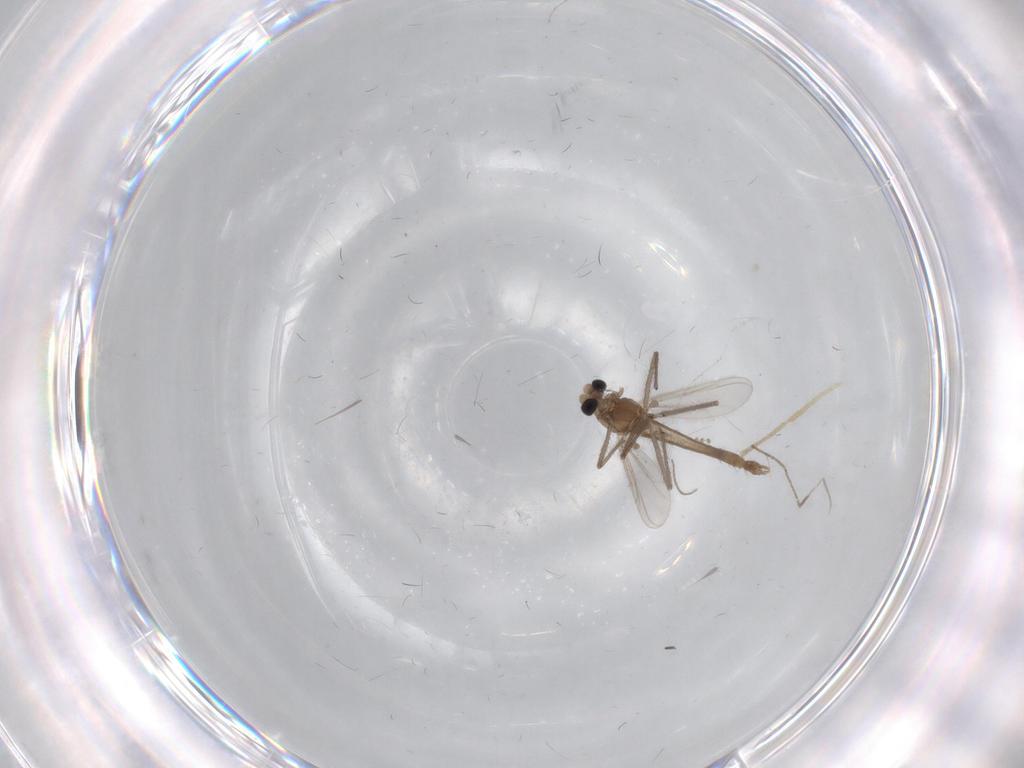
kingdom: Animalia
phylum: Arthropoda
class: Insecta
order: Diptera
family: Chironomidae
